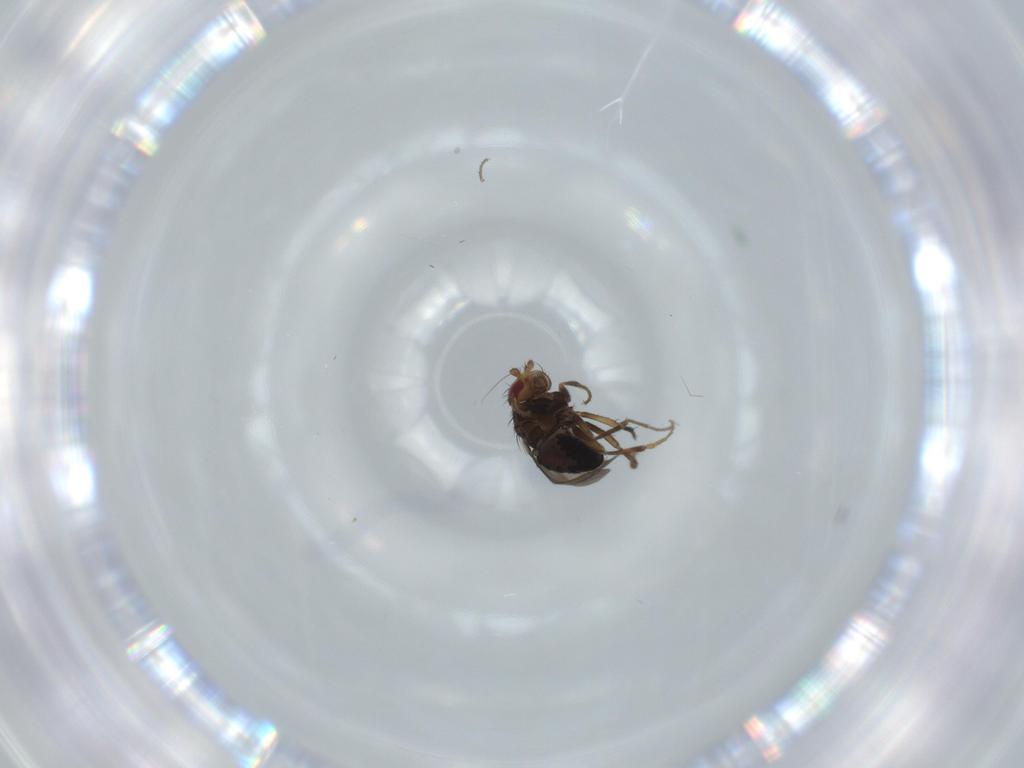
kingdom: Animalia
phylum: Arthropoda
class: Insecta
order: Diptera
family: Sphaeroceridae
